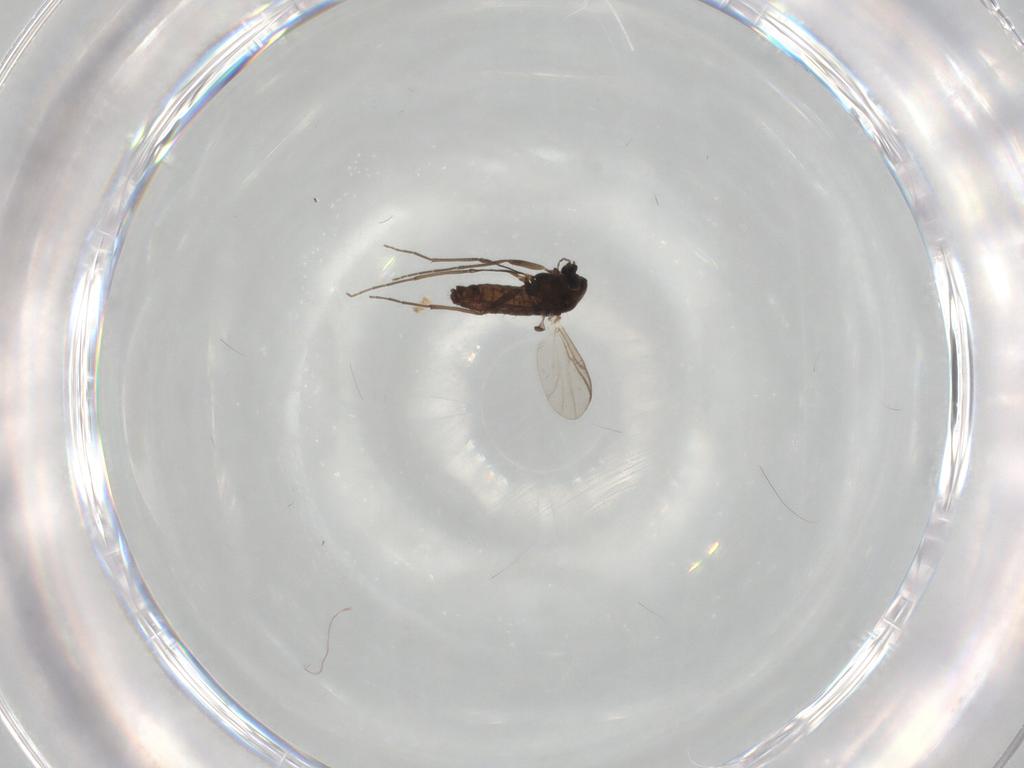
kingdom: Animalia
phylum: Arthropoda
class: Insecta
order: Diptera
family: Chironomidae
